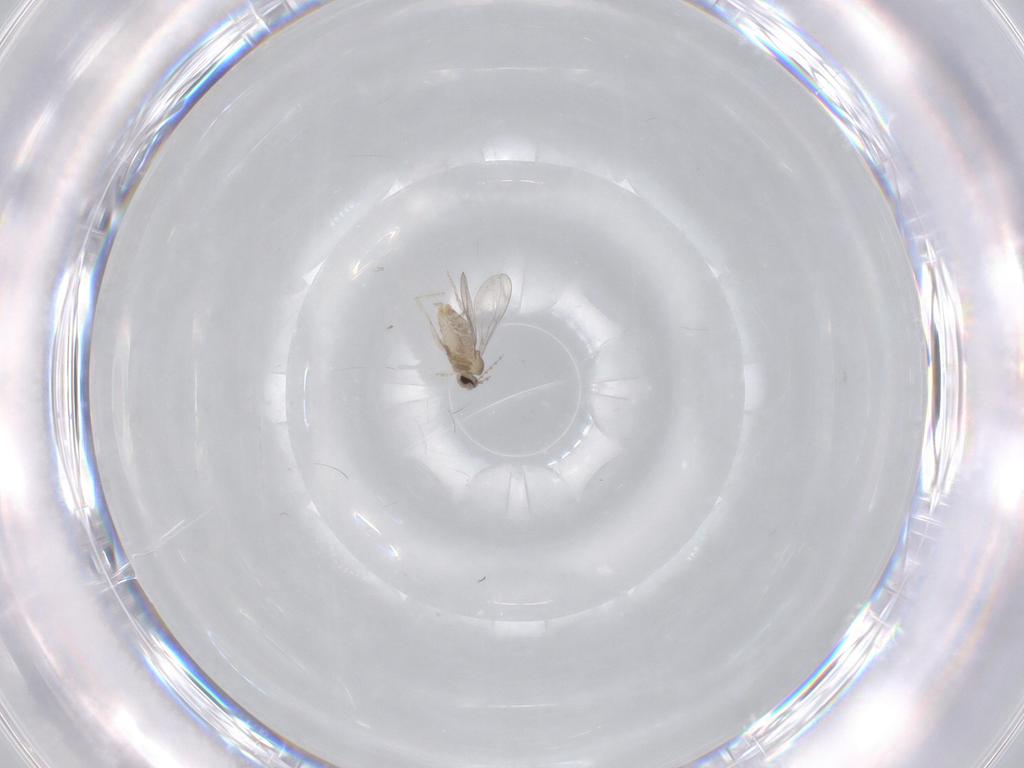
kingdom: Animalia
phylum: Arthropoda
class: Insecta
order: Diptera
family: Cecidomyiidae
